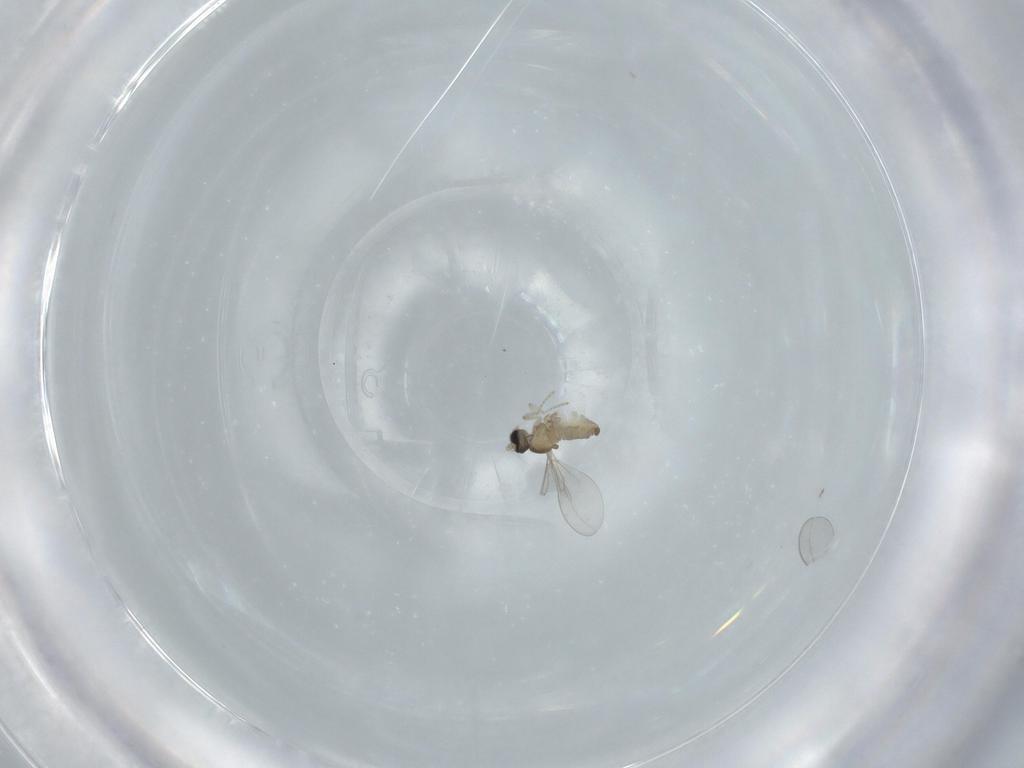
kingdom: Animalia
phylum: Arthropoda
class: Insecta
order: Diptera
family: Cecidomyiidae
